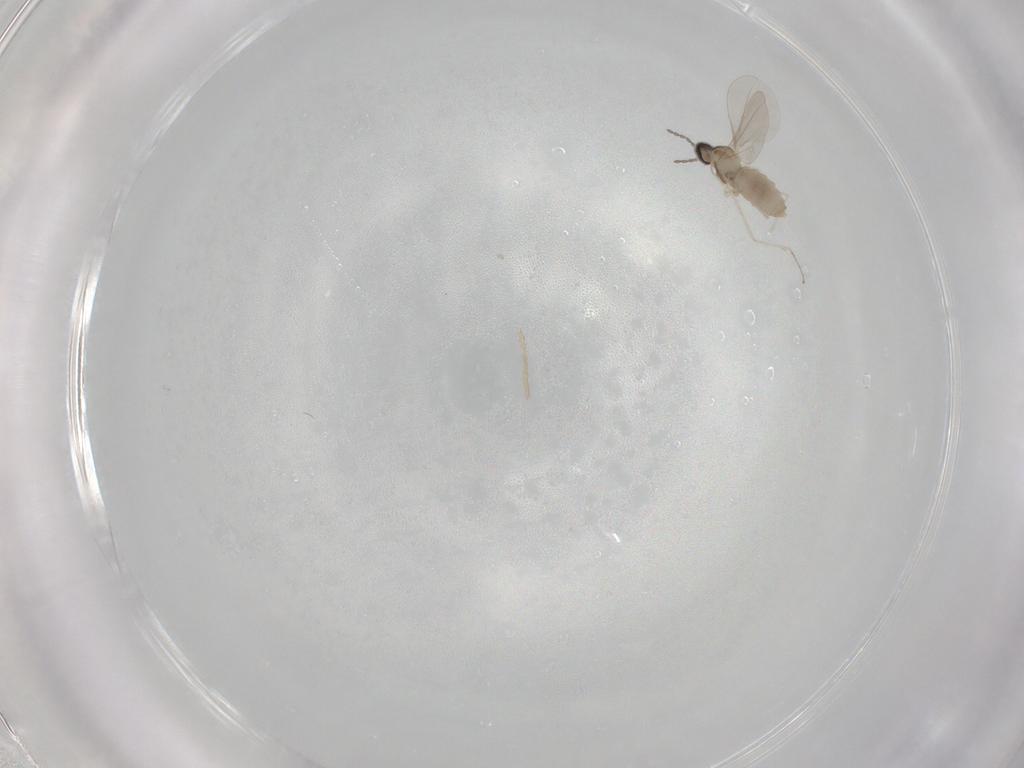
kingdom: Animalia
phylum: Arthropoda
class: Insecta
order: Diptera
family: Cecidomyiidae
